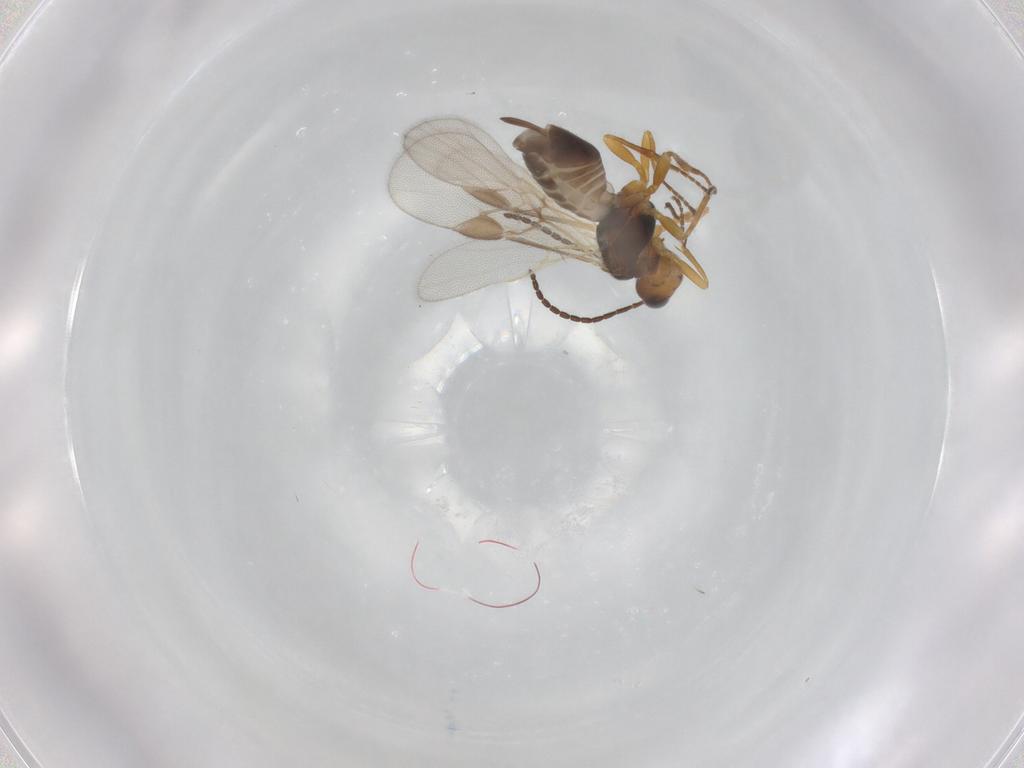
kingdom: Animalia
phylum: Arthropoda
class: Insecta
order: Hymenoptera
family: Braconidae
